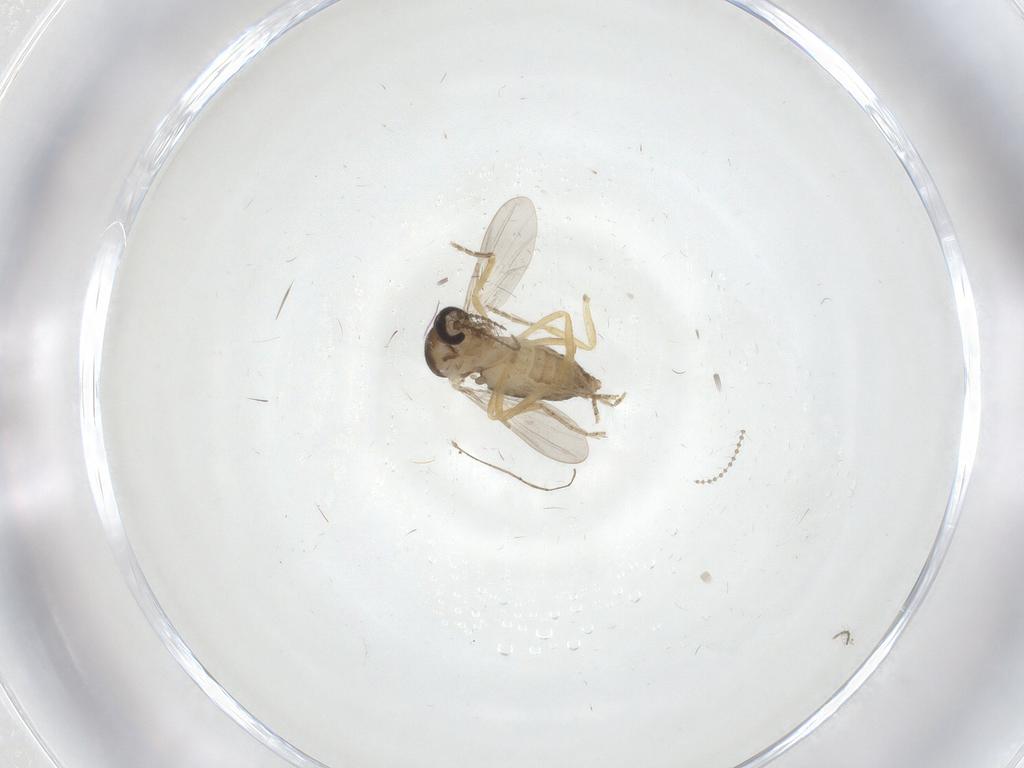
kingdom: Animalia
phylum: Arthropoda
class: Insecta
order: Diptera
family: Ceratopogonidae
